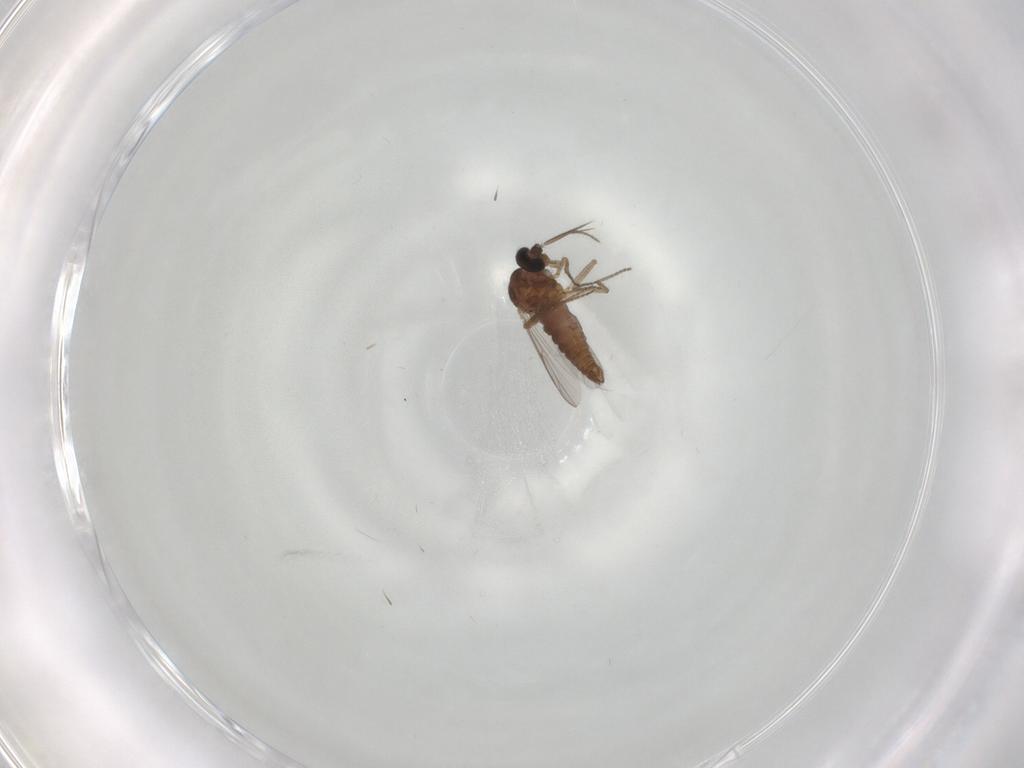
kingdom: Animalia
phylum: Arthropoda
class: Insecta
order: Diptera
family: Ceratopogonidae
